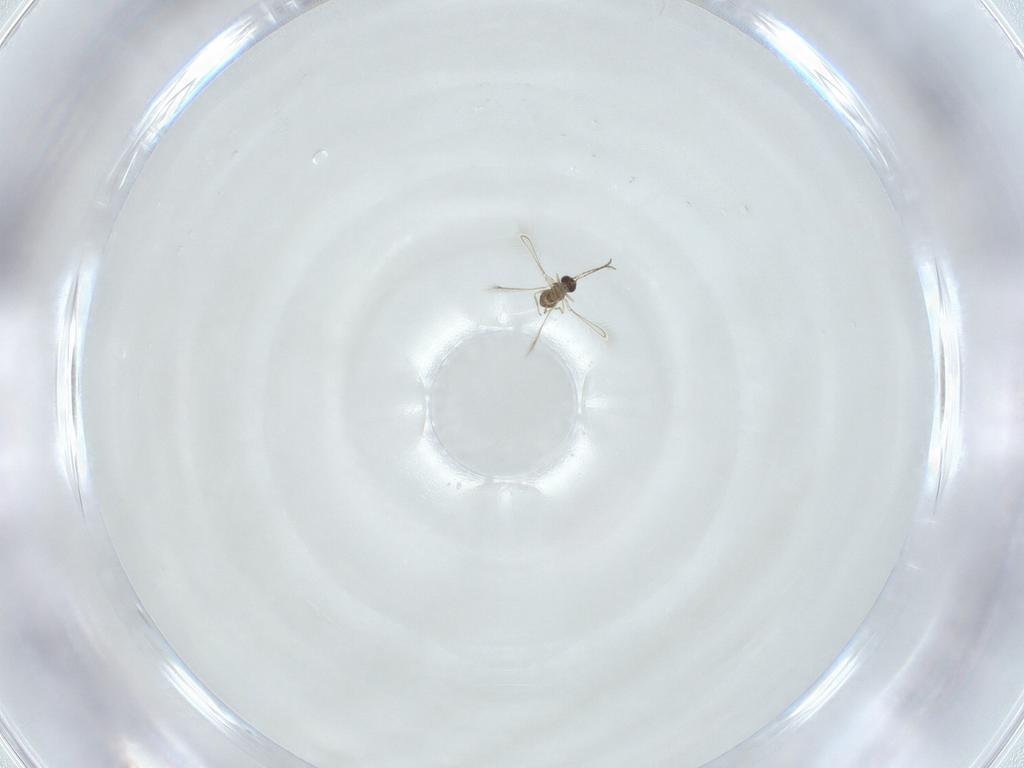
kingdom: Animalia
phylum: Arthropoda
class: Insecta
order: Coleoptera
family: Scraptiidae
